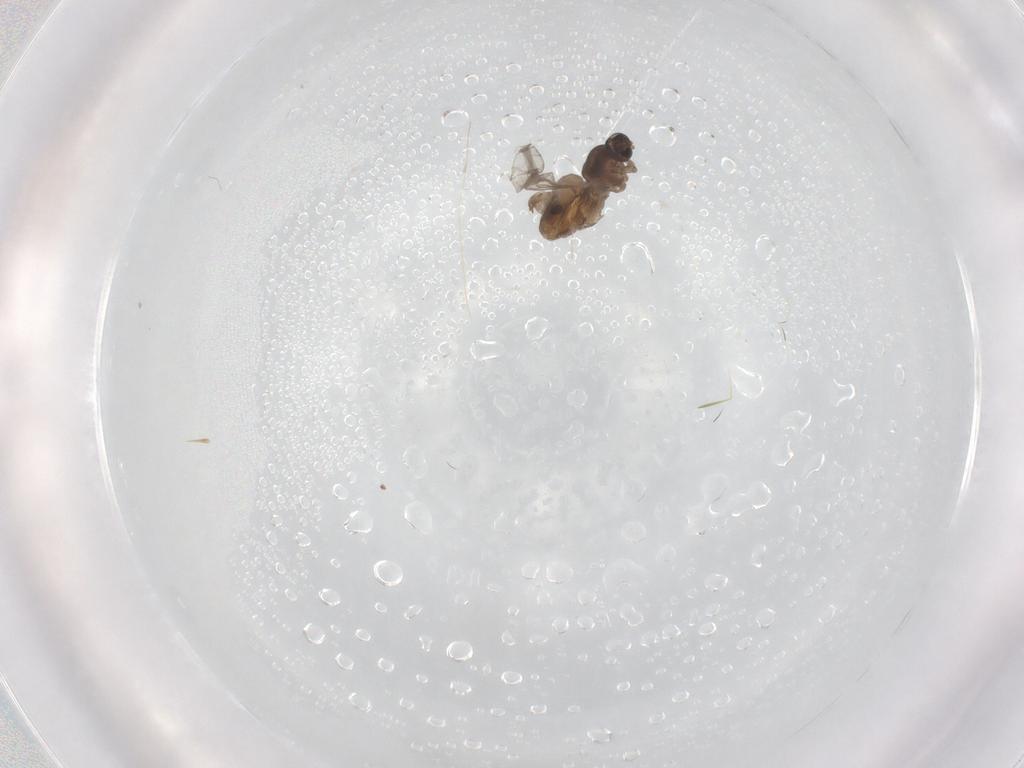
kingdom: Animalia
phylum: Arthropoda
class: Insecta
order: Diptera
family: Cecidomyiidae
